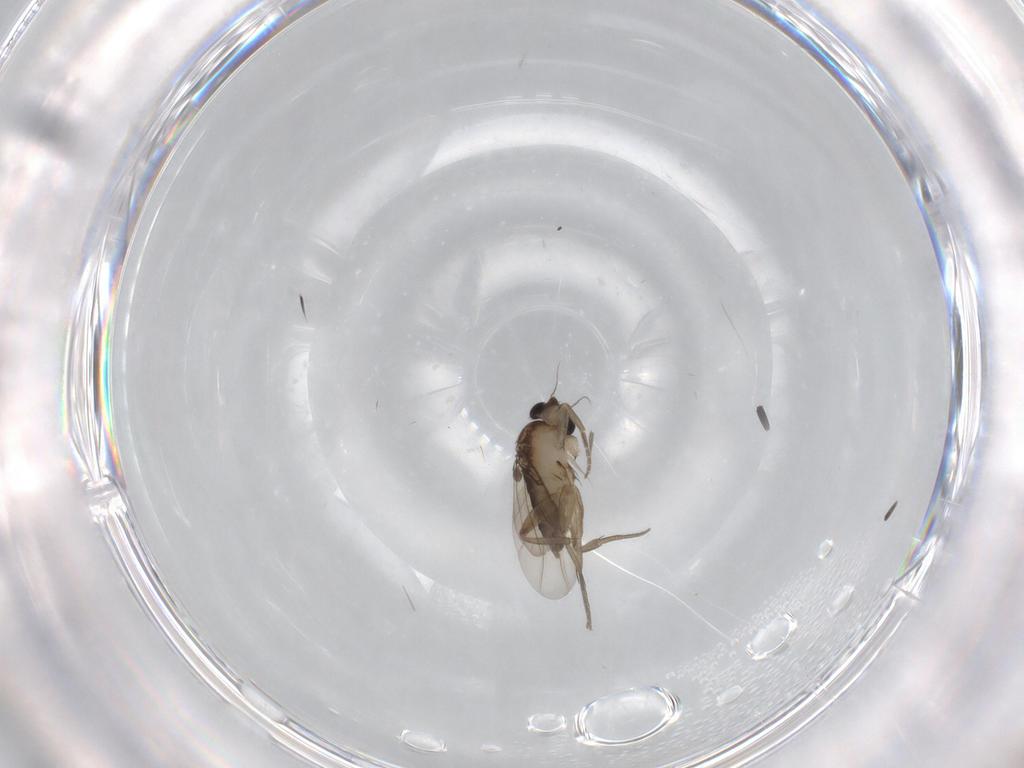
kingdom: Animalia
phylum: Arthropoda
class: Insecta
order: Diptera
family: Phoridae
